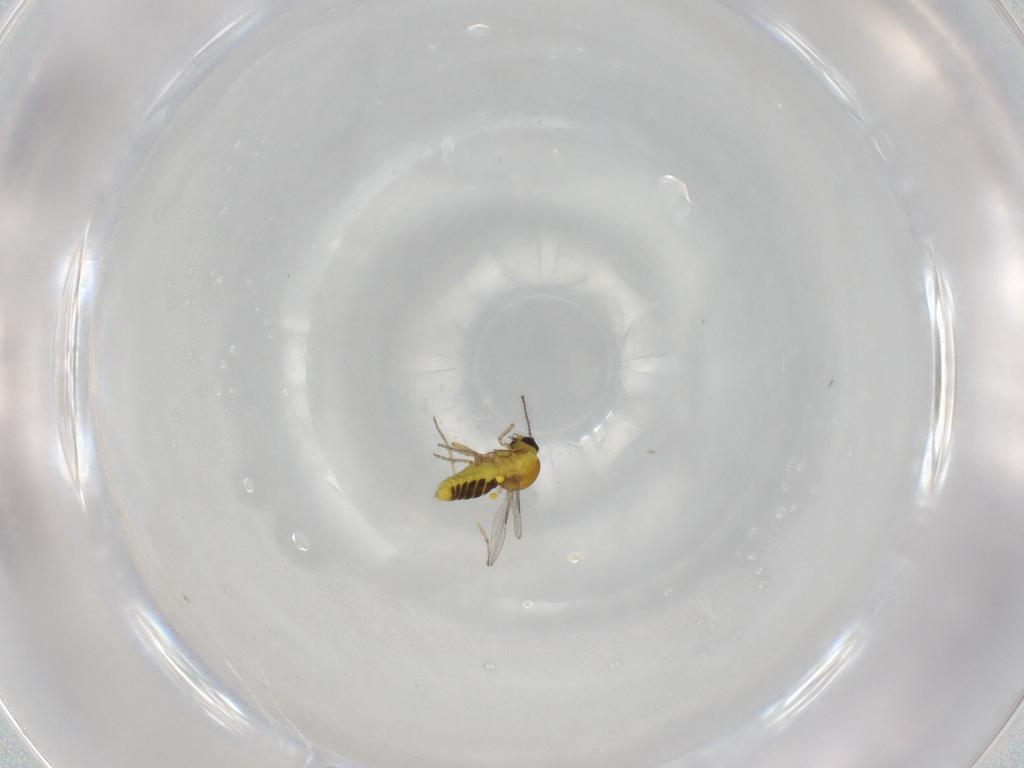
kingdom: Animalia
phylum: Arthropoda
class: Insecta
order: Diptera
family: Ceratopogonidae
